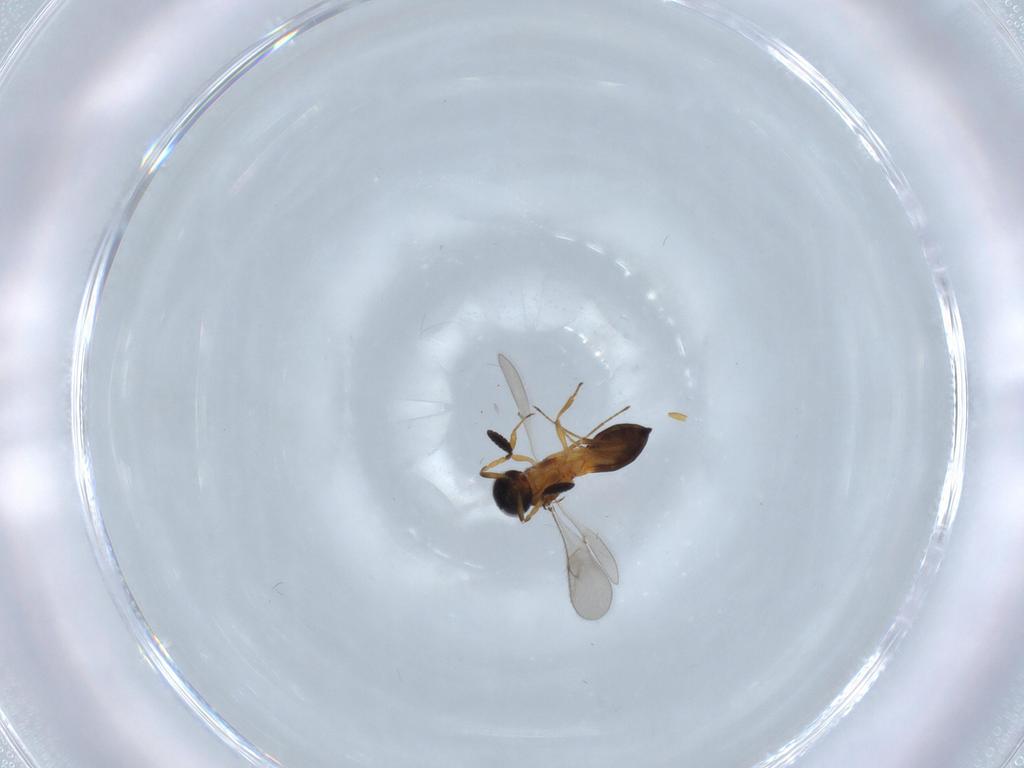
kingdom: Animalia
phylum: Arthropoda
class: Insecta
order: Hymenoptera
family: Scelionidae
